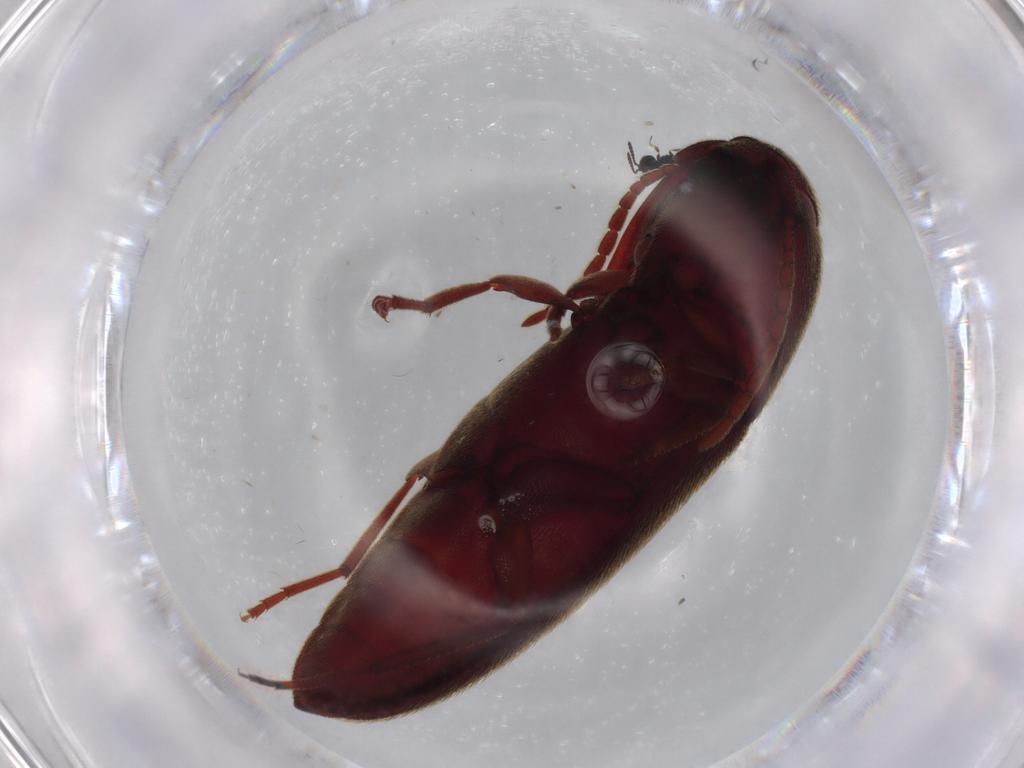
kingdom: Animalia
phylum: Arthropoda
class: Insecta
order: Coleoptera
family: Eucnemidae
